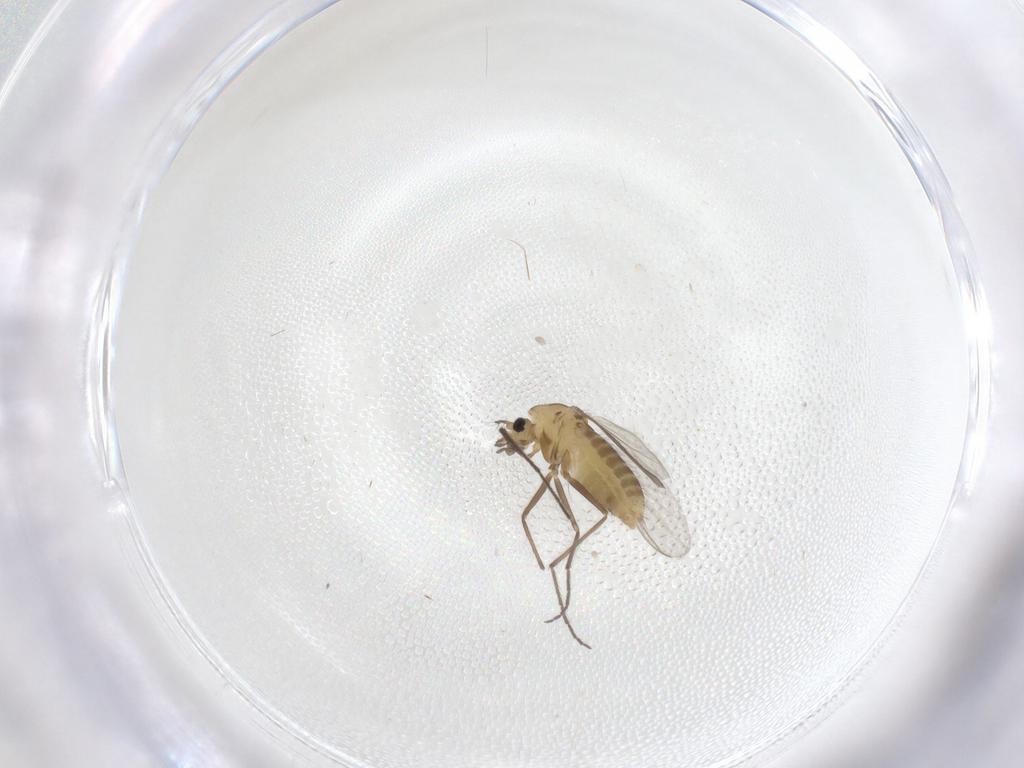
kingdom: Animalia
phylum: Arthropoda
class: Insecta
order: Diptera
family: Chironomidae
